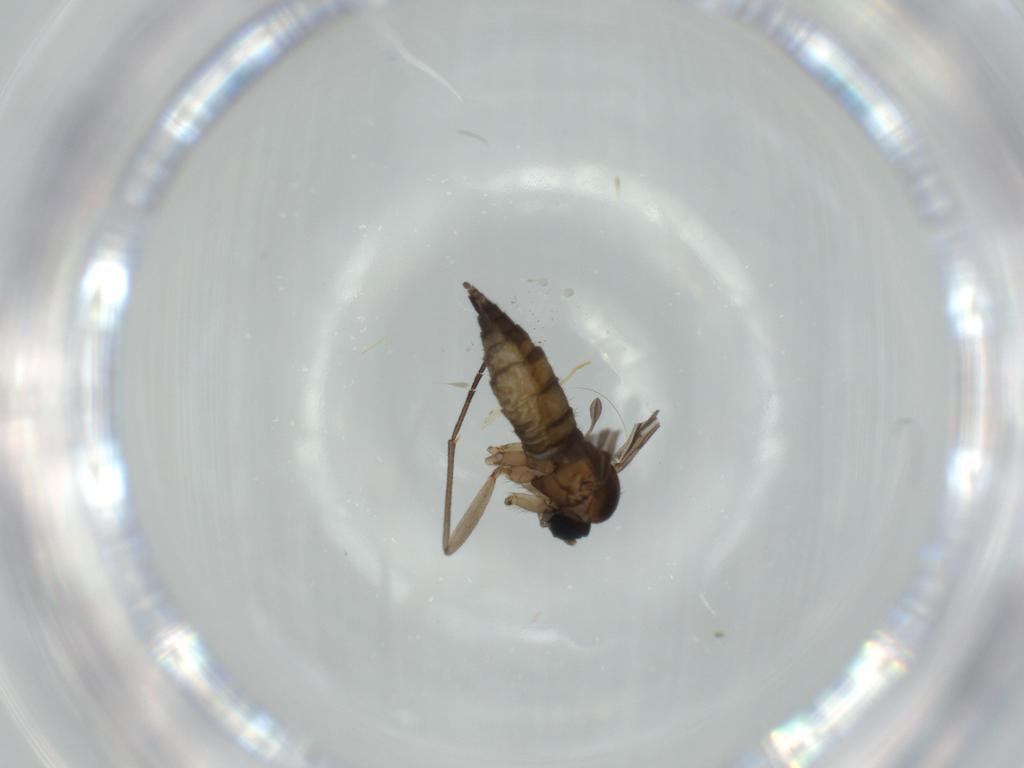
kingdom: Animalia
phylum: Arthropoda
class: Insecta
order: Diptera
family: Sciaridae
